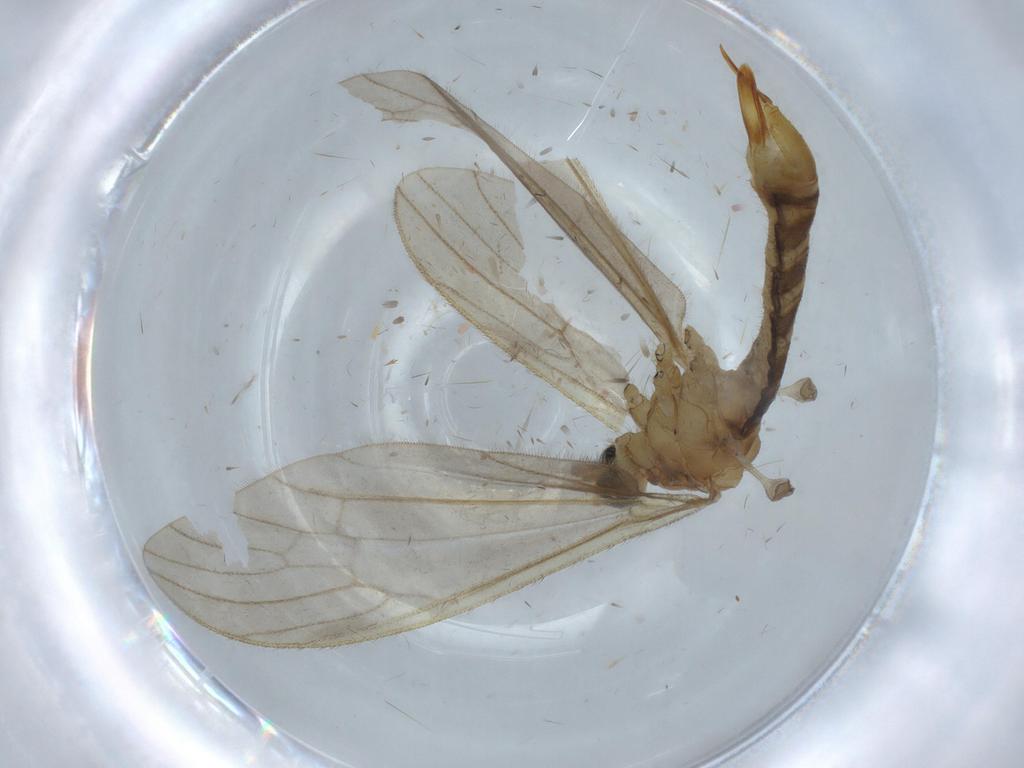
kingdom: Animalia
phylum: Arthropoda
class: Insecta
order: Diptera
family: Limoniidae
